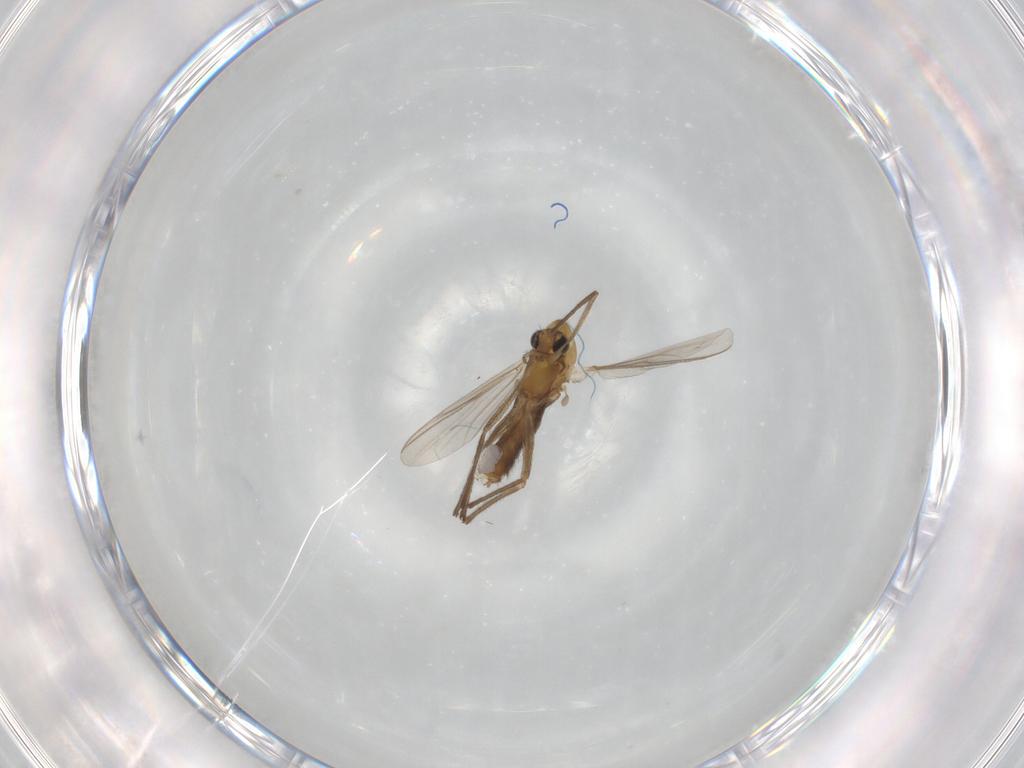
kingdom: Animalia
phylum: Arthropoda
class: Insecta
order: Diptera
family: Chironomidae
